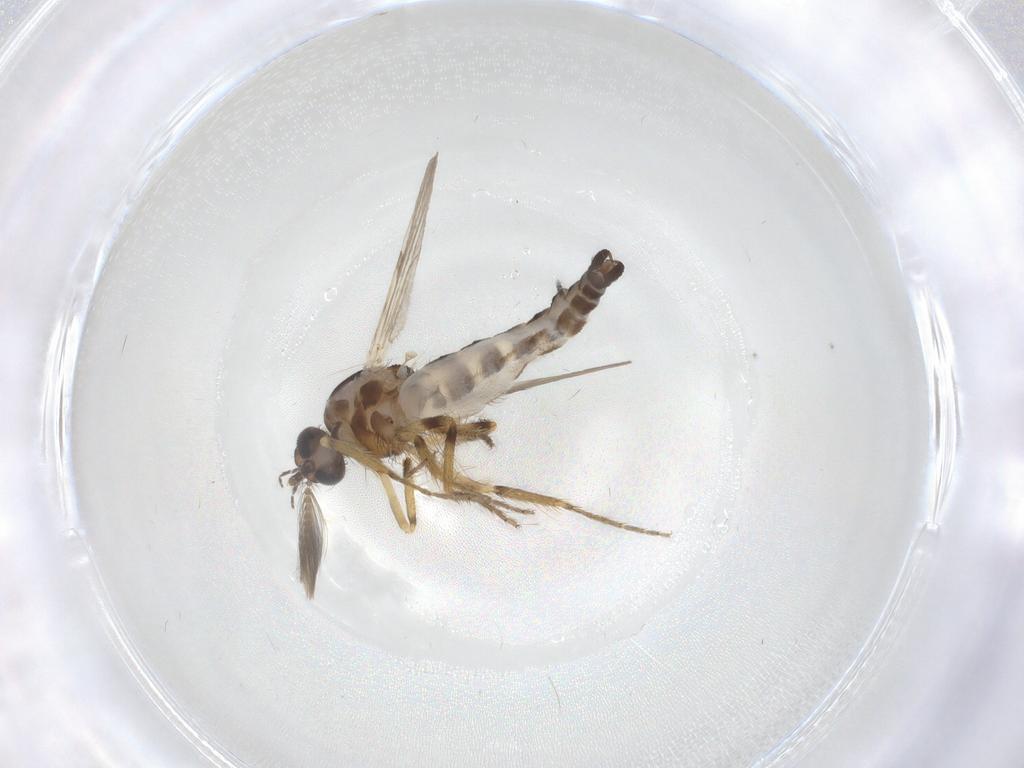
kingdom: Animalia
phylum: Arthropoda
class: Insecta
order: Diptera
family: Ceratopogonidae
